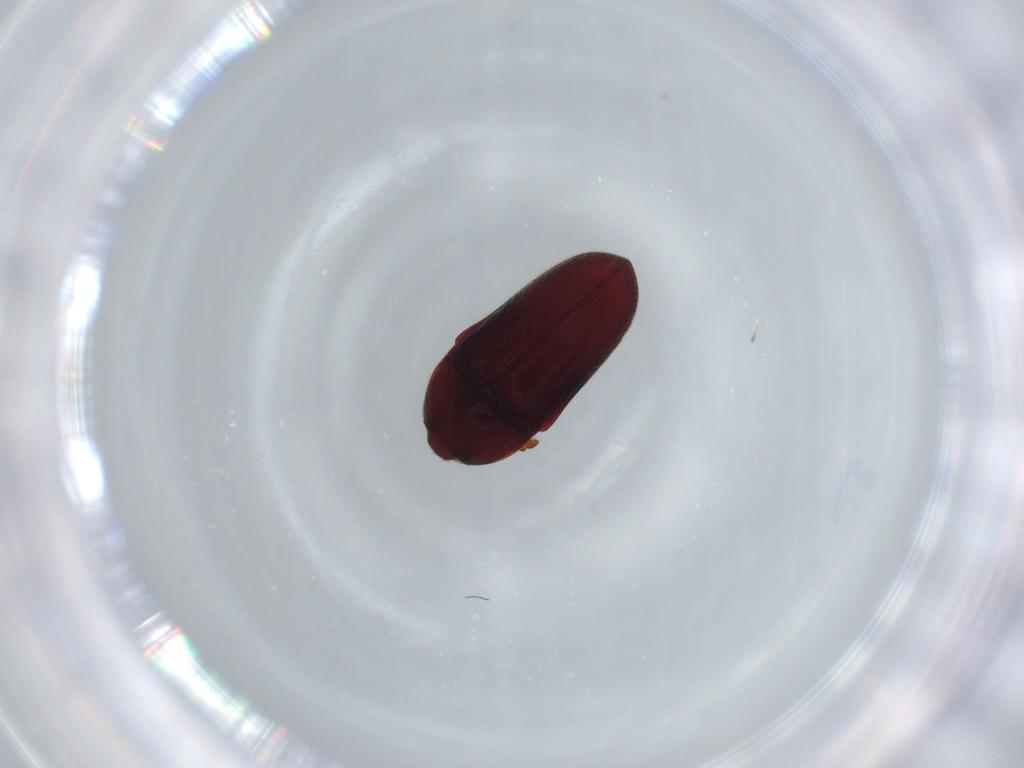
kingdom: Animalia
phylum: Arthropoda
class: Insecta
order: Coleoptera
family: Throscidae
